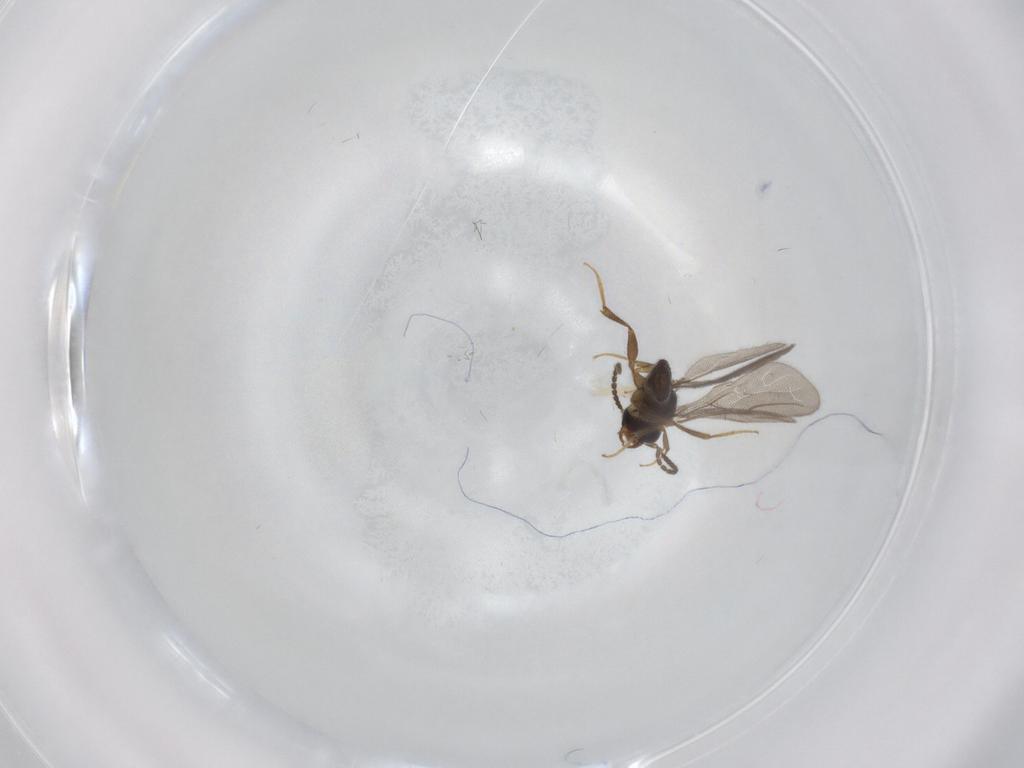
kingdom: Animalia
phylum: Arthropoda
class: Insecta
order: Hymenoptera
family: Bethylidae
